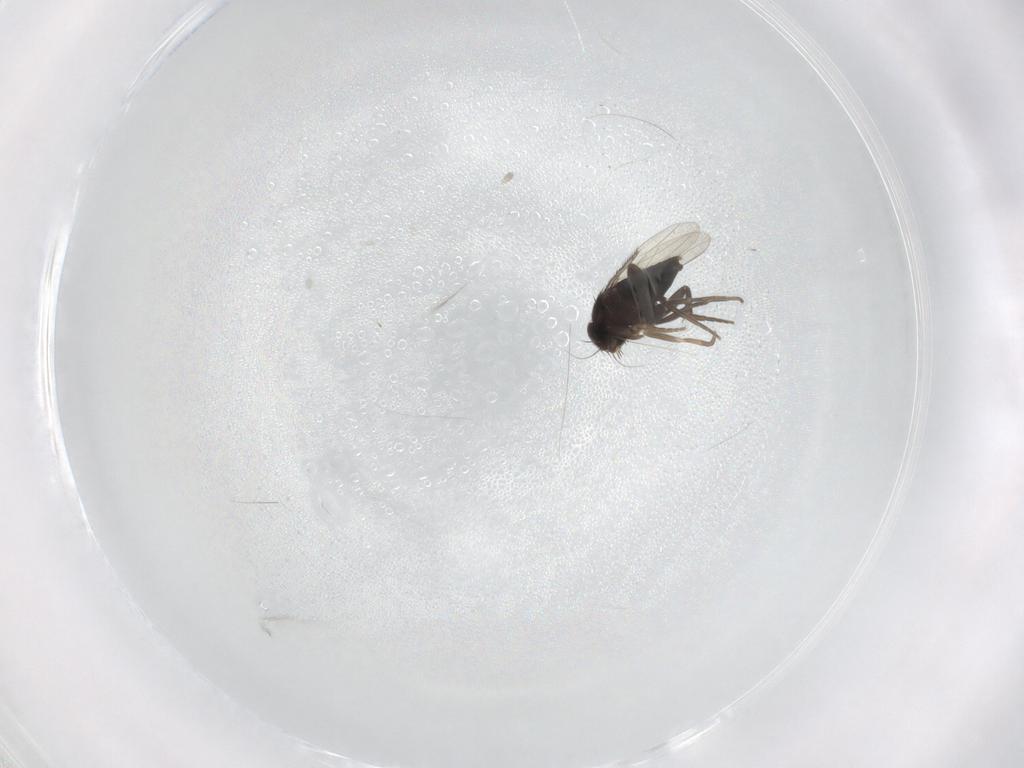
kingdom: Animalia
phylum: Arthropoda
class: Insecta
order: Diptera
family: Phoridae
